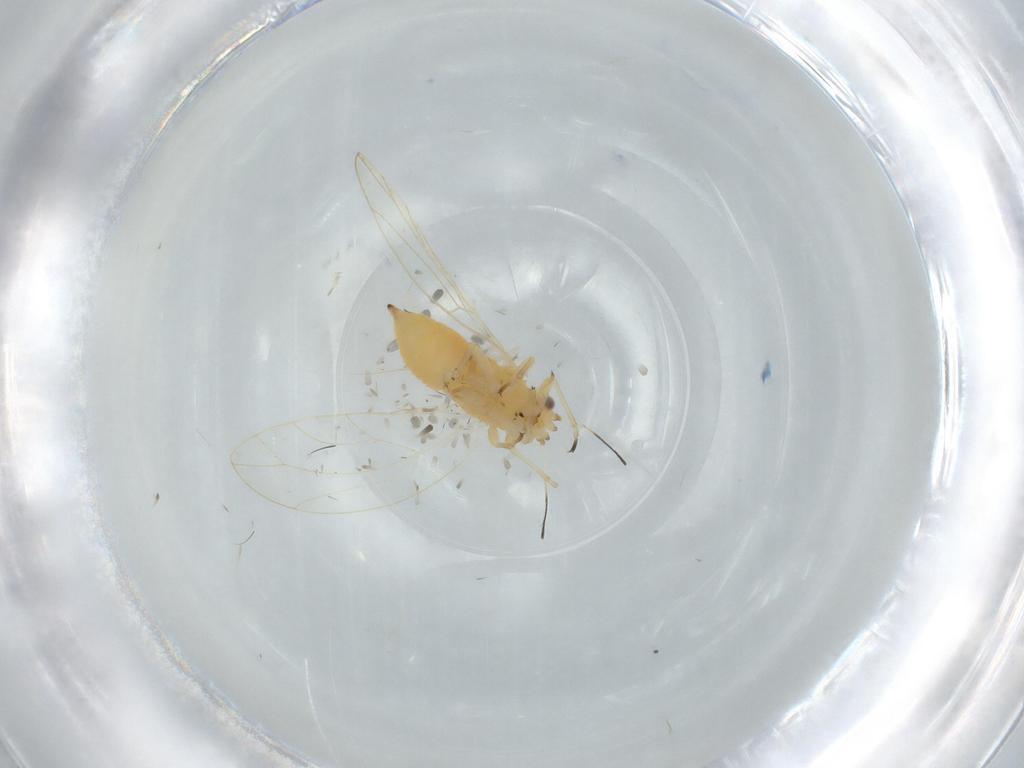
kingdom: Animalia
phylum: Arthropoda
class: Insecta
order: Hemiptera
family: Triozidae
